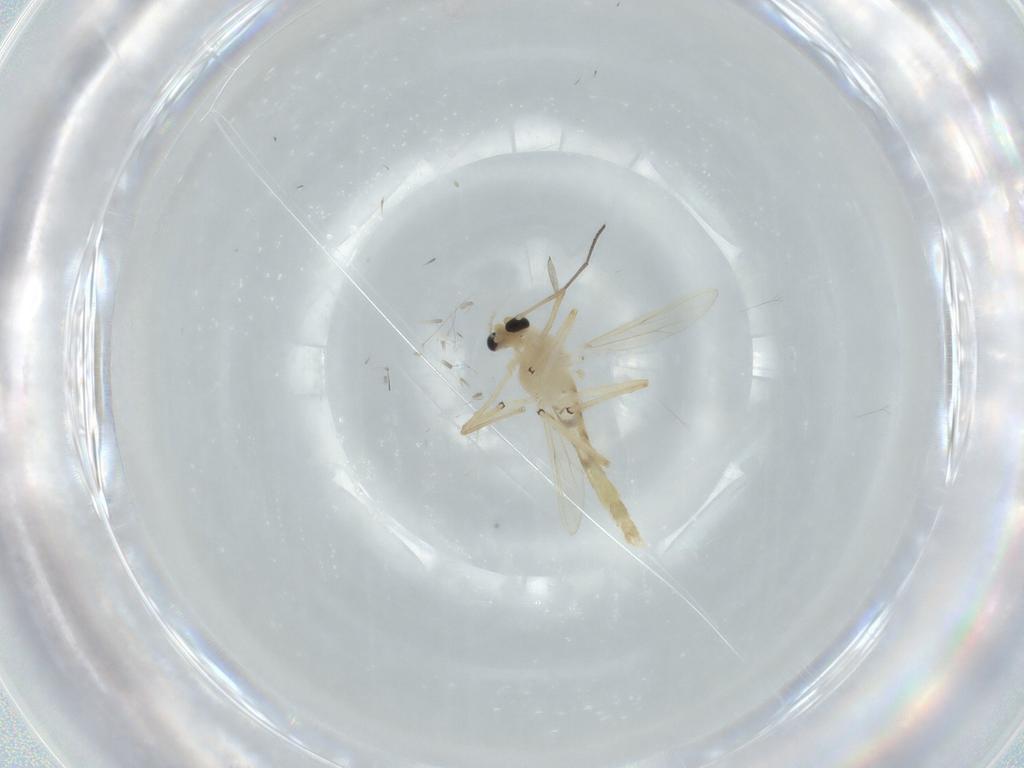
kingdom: Animalia
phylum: Arthropoda
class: Insecta
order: Diptera
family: Chironomidae
